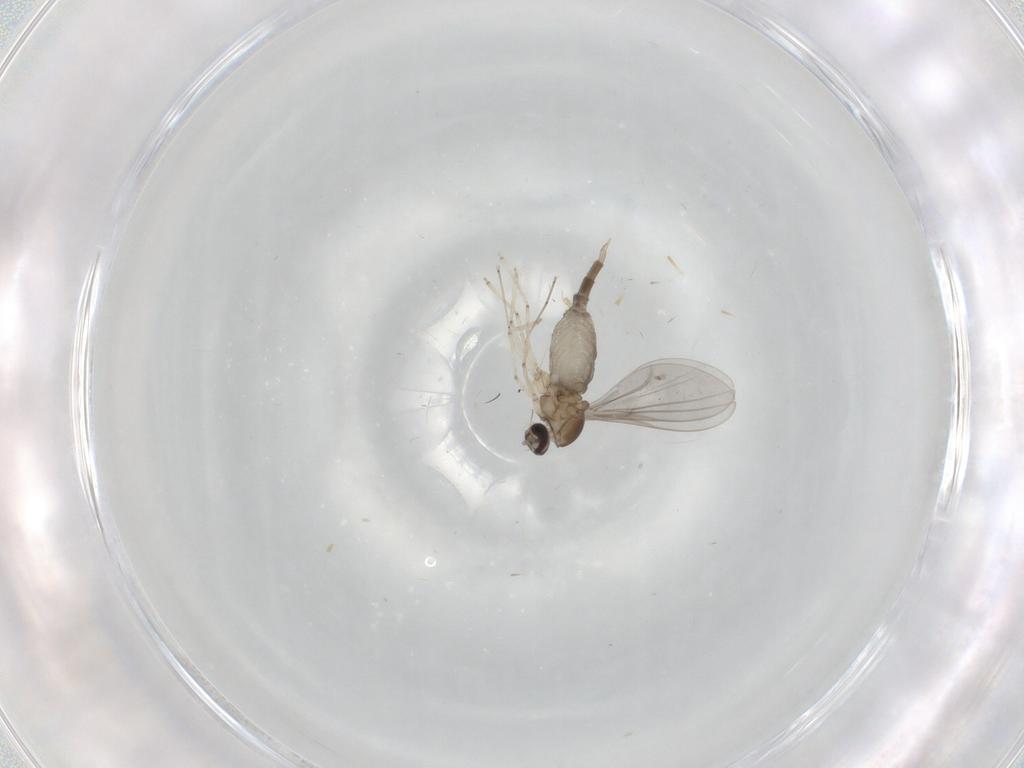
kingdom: Animalia
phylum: Arthropoda
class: Insecta
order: Diptera
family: Cecidomyiidae
